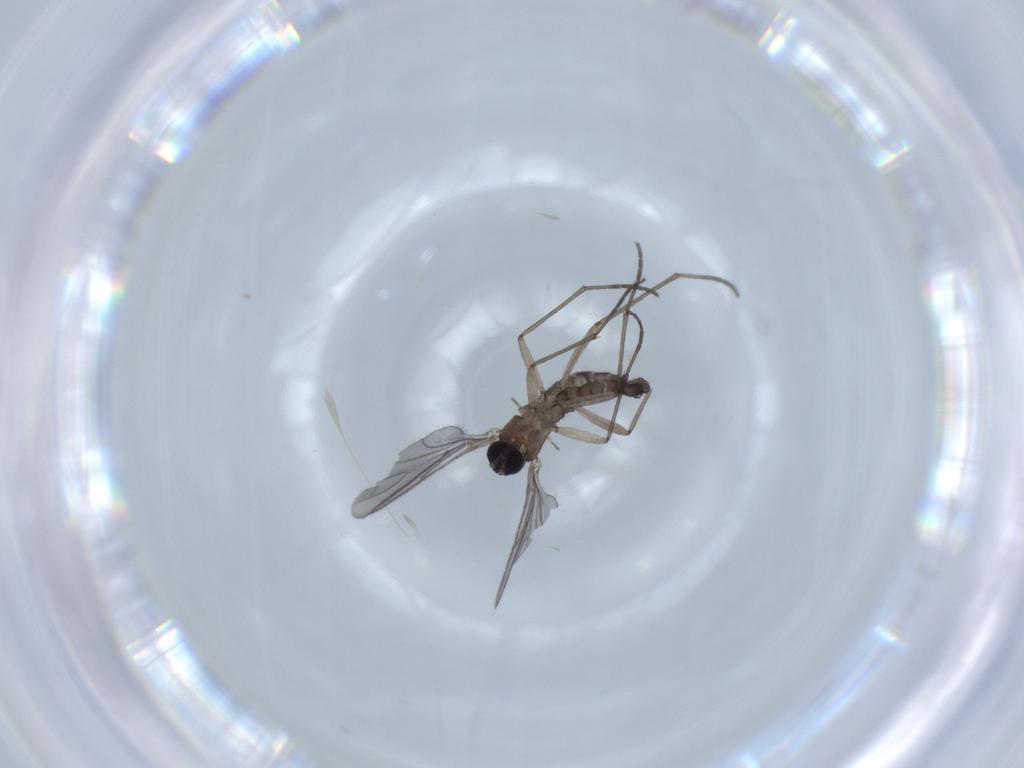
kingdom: Animalia
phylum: Arthropoda
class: Insecta
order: Diptera
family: Sciaridae
